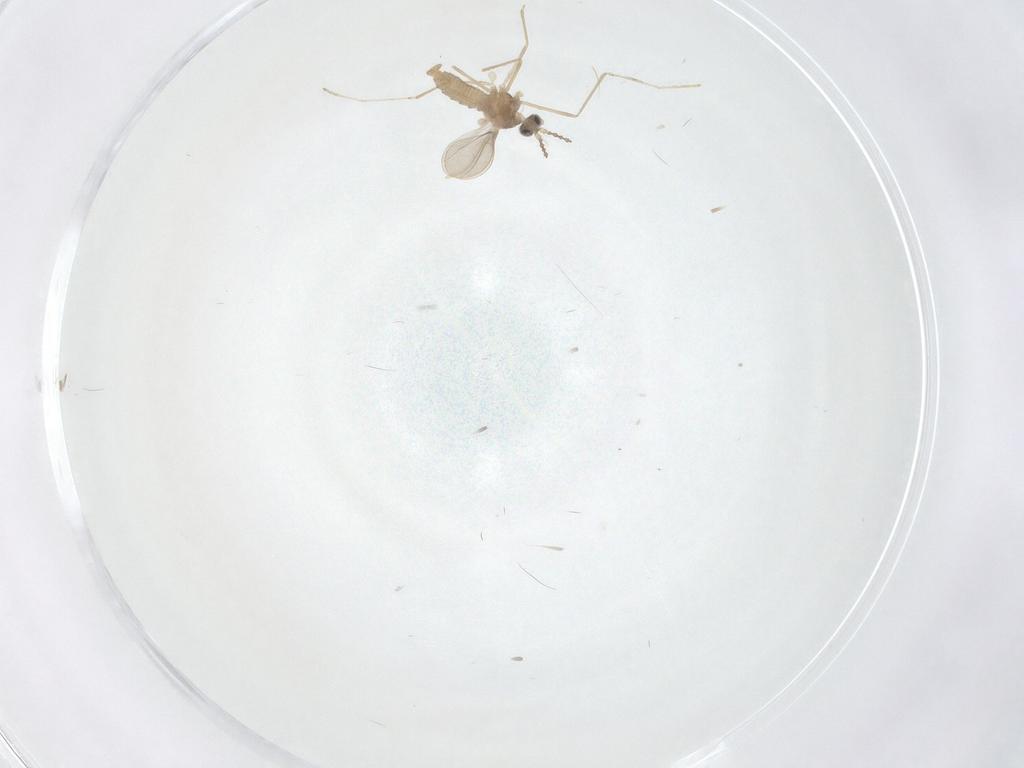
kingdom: Animalia
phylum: Arthropoda
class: Insecta
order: Diptera
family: Cecidomyiidae
